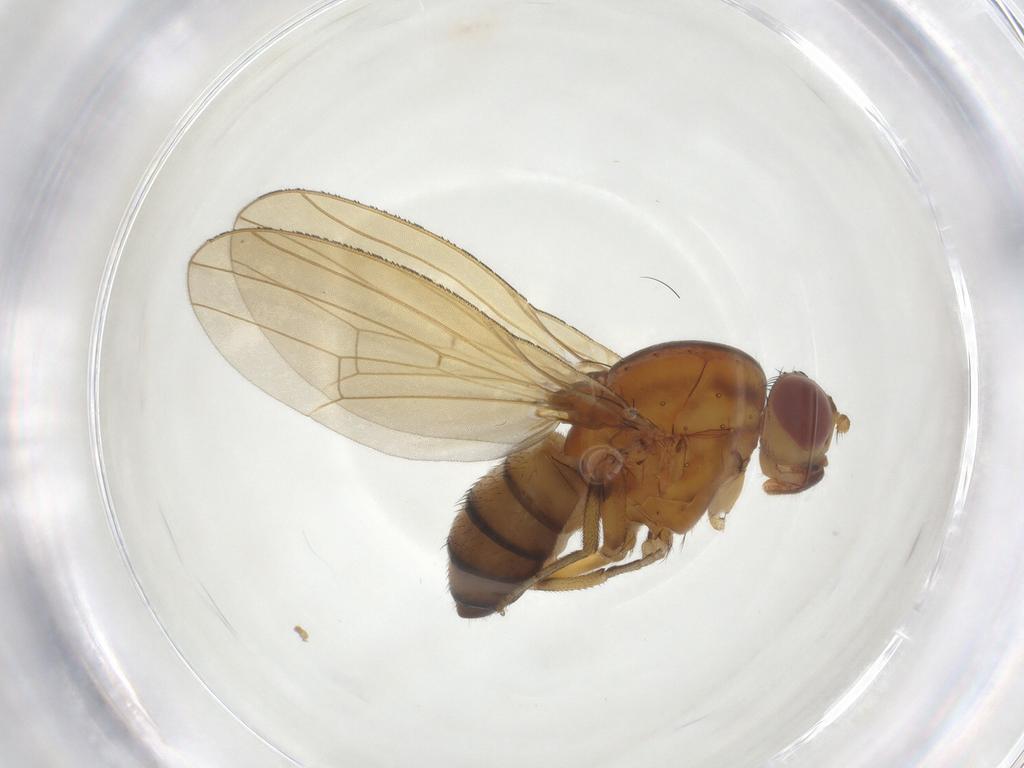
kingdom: Animalia
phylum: Arthropoda
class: Insecta
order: Diptera
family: Lauxaniidae
